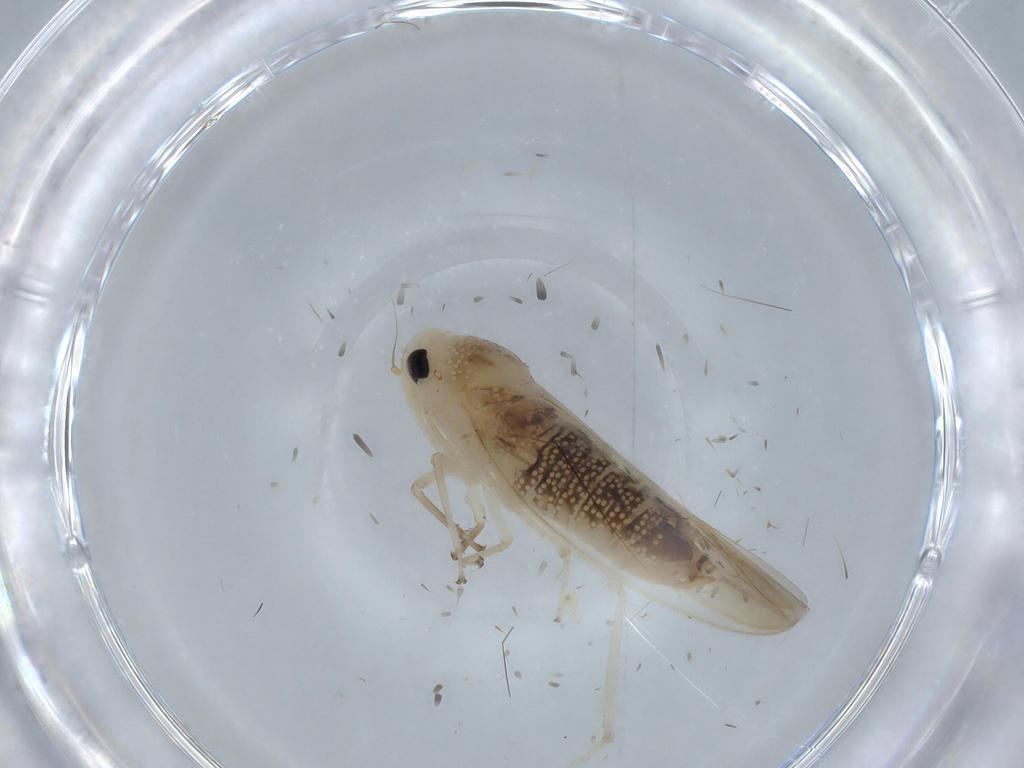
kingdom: Animalia
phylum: Arthropoda
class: Insecta
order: Hemiptera
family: Cicadellidae
